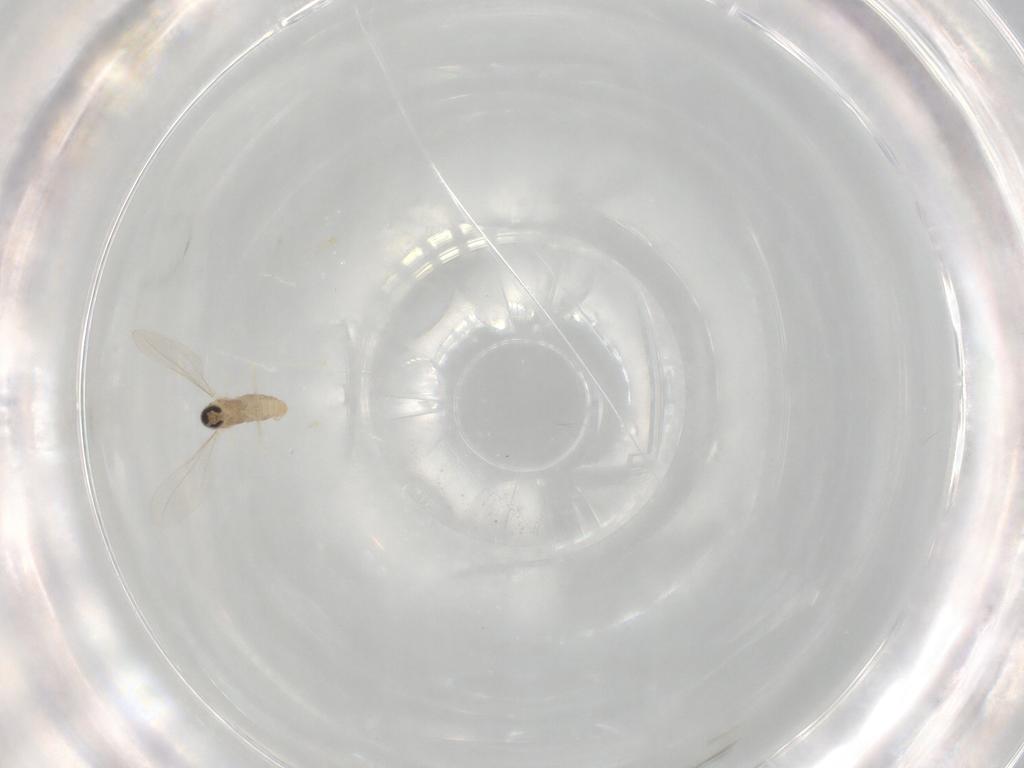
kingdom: Animalia
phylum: Arthropoda
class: Insecta
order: Diptera
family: Cecidomyiidae
